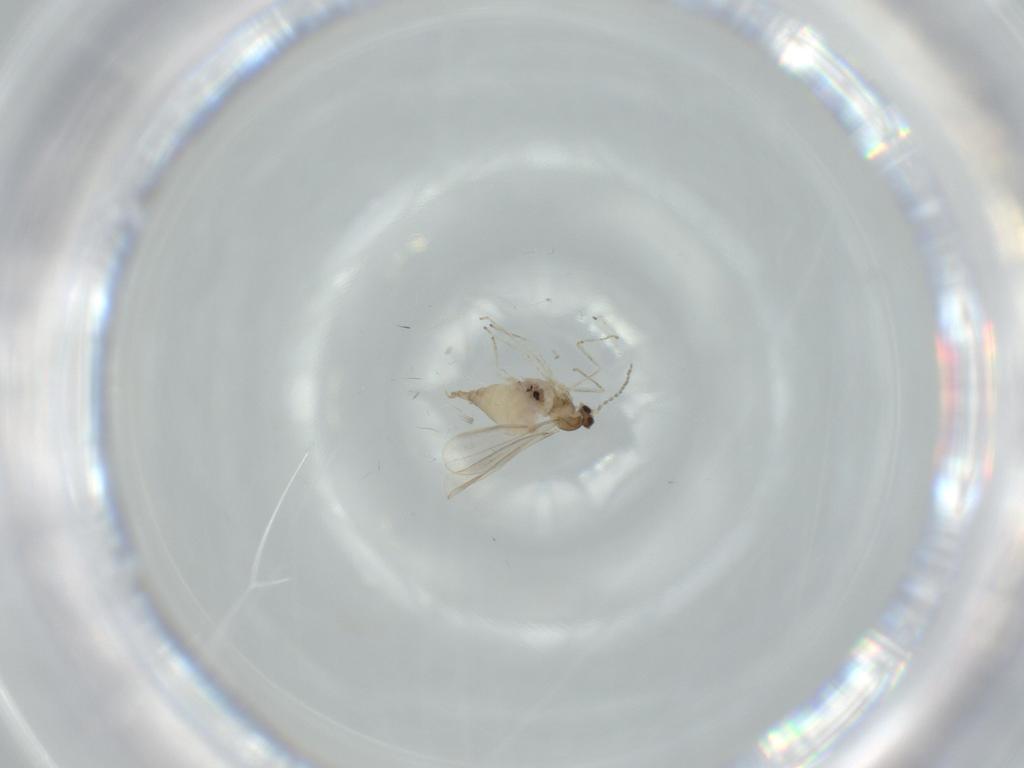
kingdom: Animalia
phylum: Arthropoda
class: Insecta
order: Diptera
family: Cecidomyiidae
